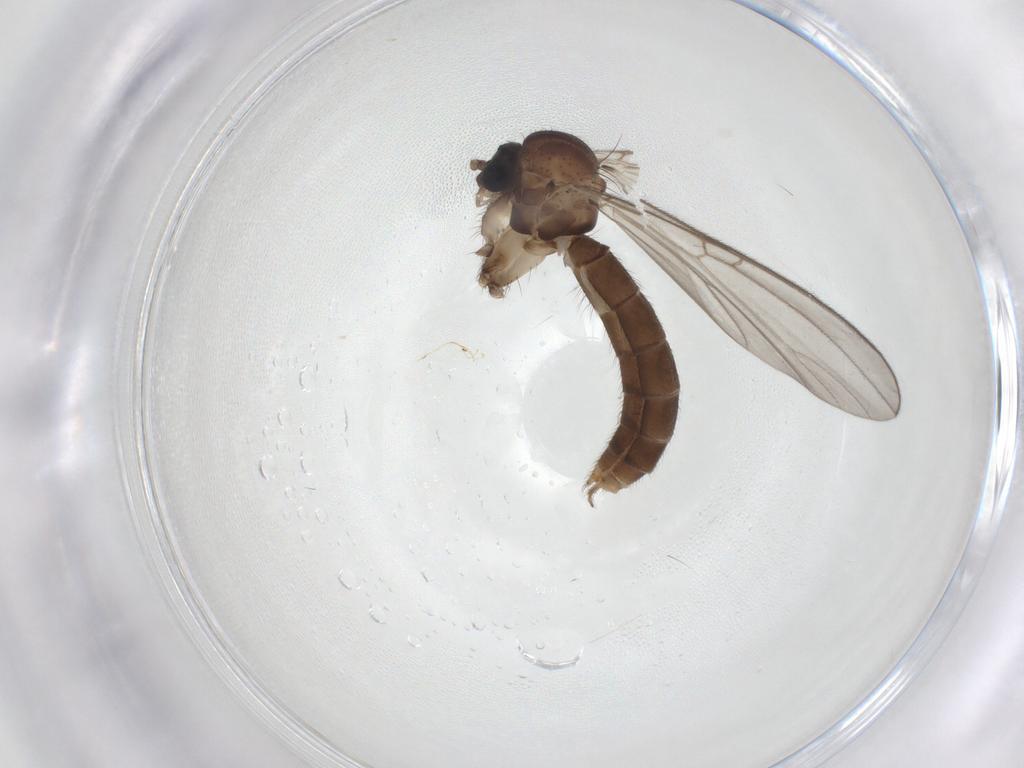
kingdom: Animalia
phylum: Arthropoda
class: Insecta
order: Diptera
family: Mycetophilidae
